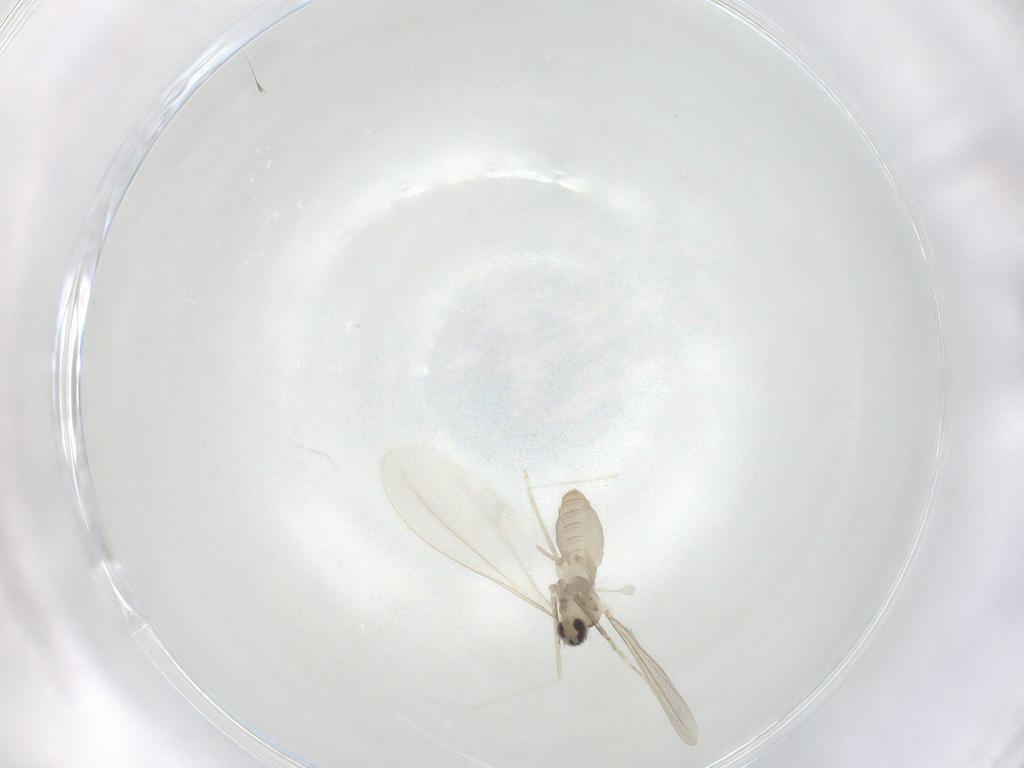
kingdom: Animalia
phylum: Arthropoda
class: Insecta
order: Diptera
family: Cecidomyiidae
